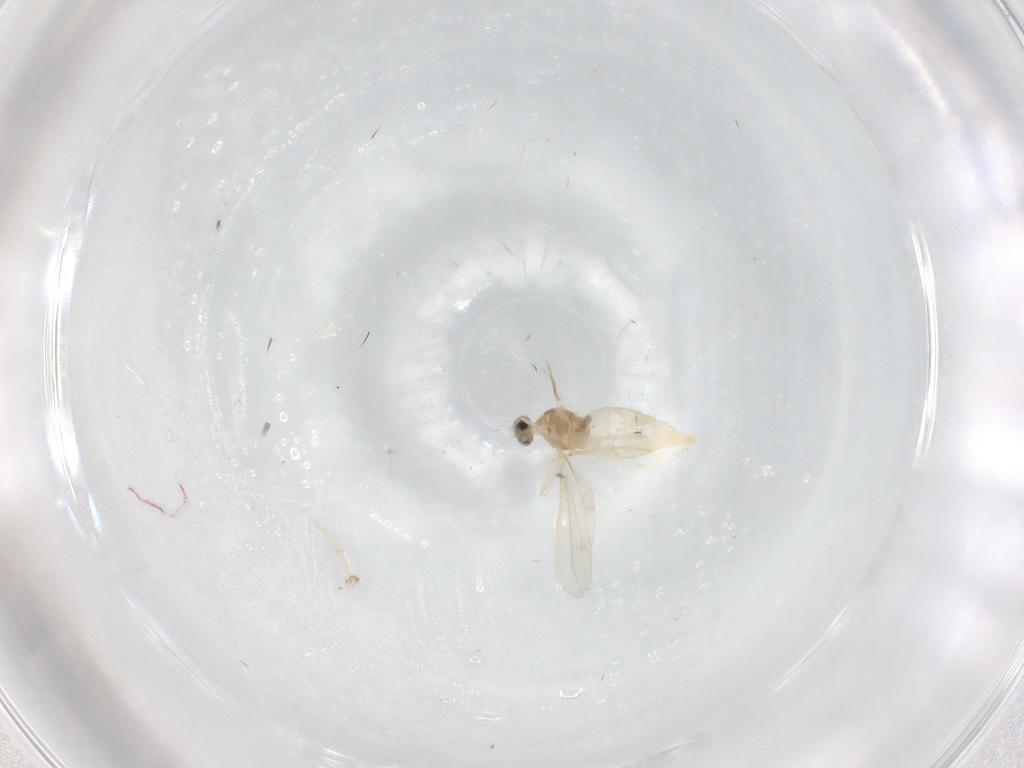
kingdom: Animalia
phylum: Arthropoda
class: Insecta
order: Diptera
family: Cecidomyiidae
